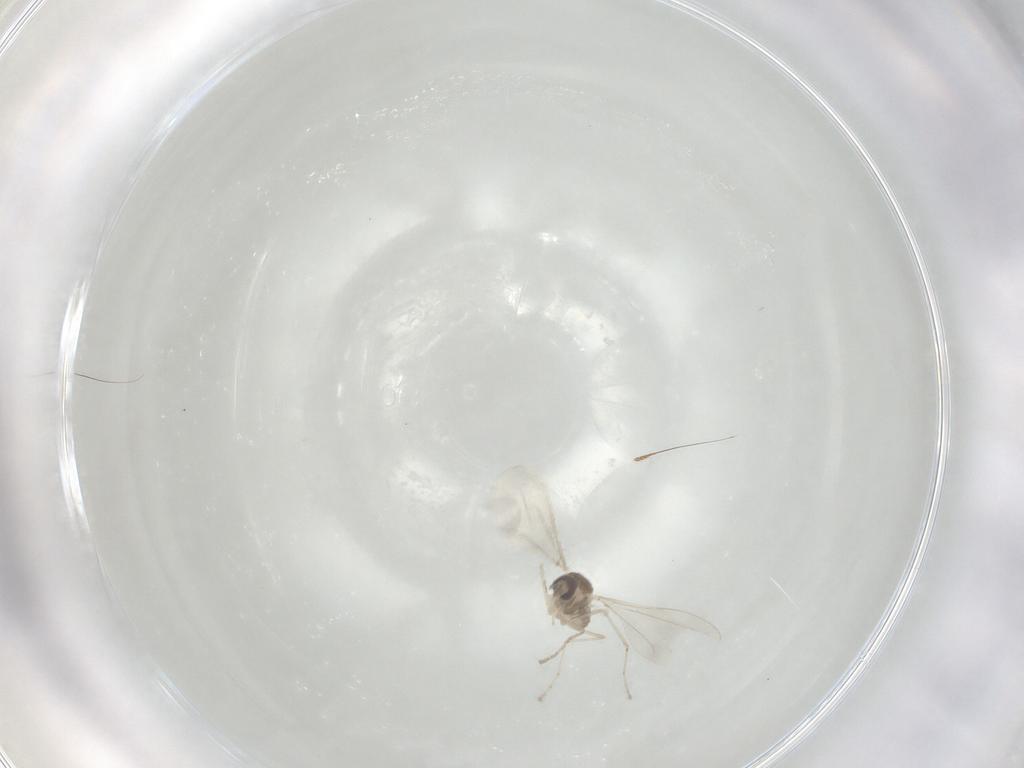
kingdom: Animalia
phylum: Arthropoda
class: Insecta
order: Diptera
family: Cecidomyiidae
